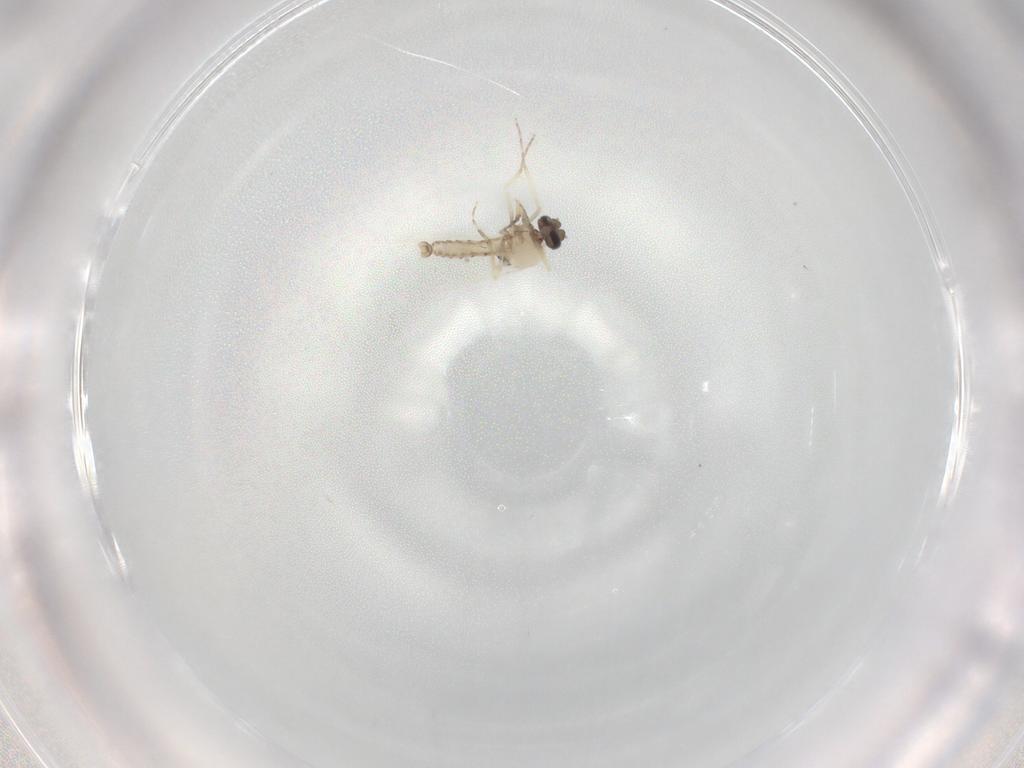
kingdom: Animalia
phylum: Arthropoda
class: Insecta
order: Diptera
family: Ceratopogonidae
